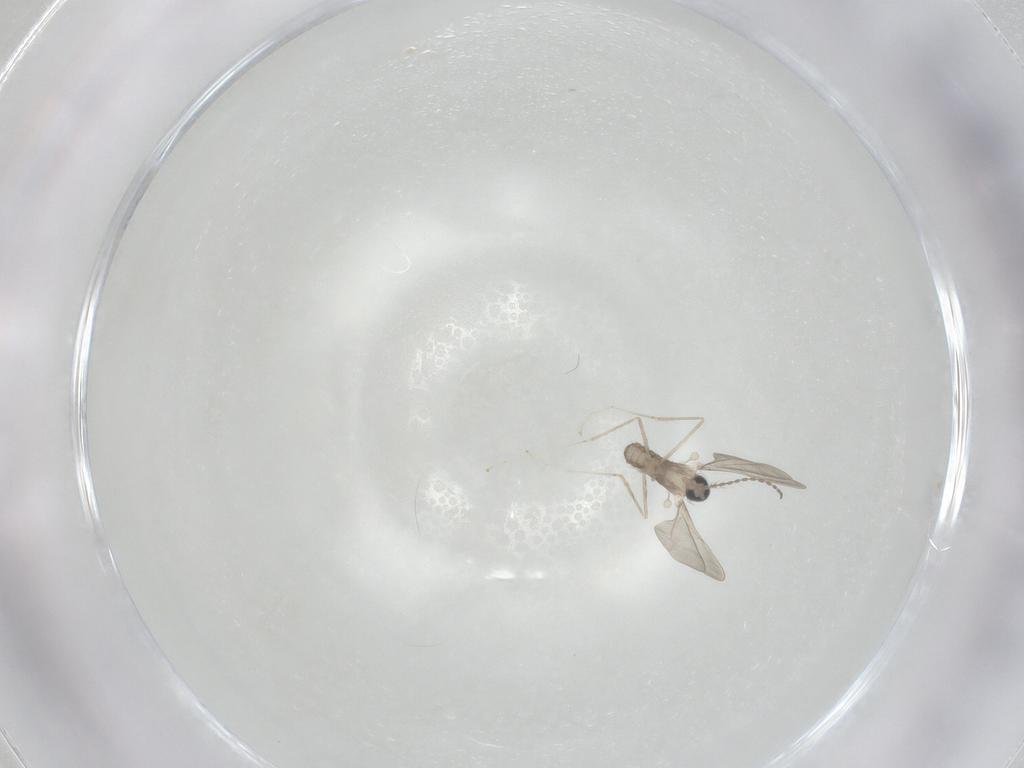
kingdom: Animalia
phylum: Arthropoda
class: Insecta
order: Diptera
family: Cecidomyiidae
